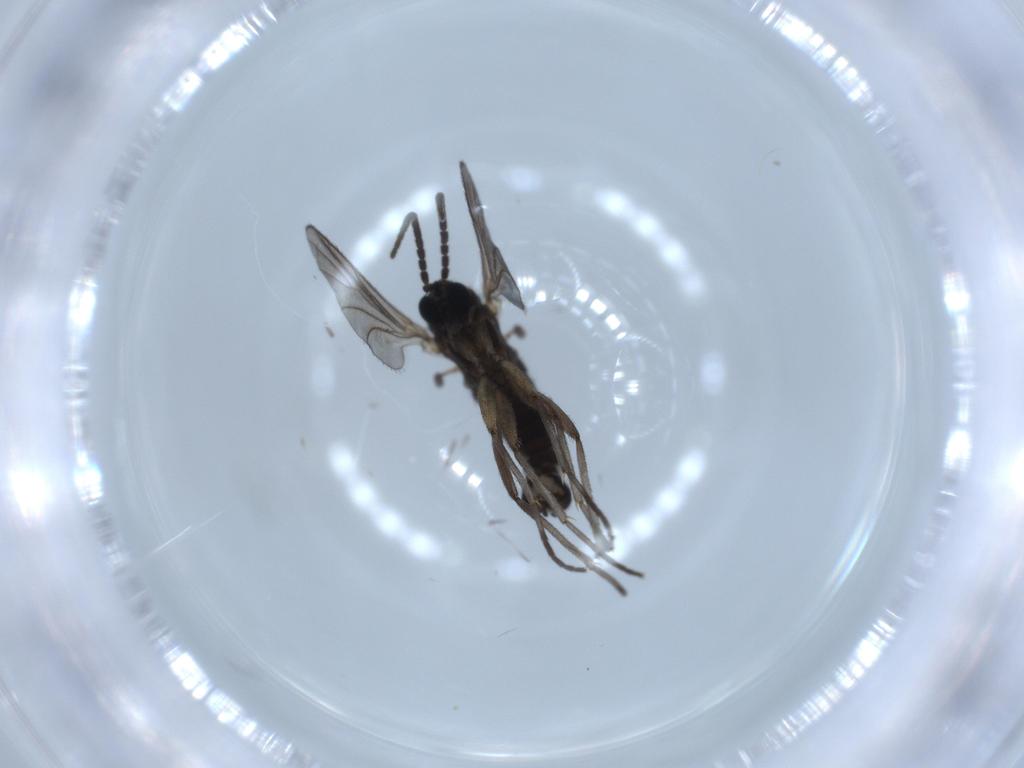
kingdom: Animalia
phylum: Arthropoda
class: Insecta
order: Diptera
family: Sciaridae
